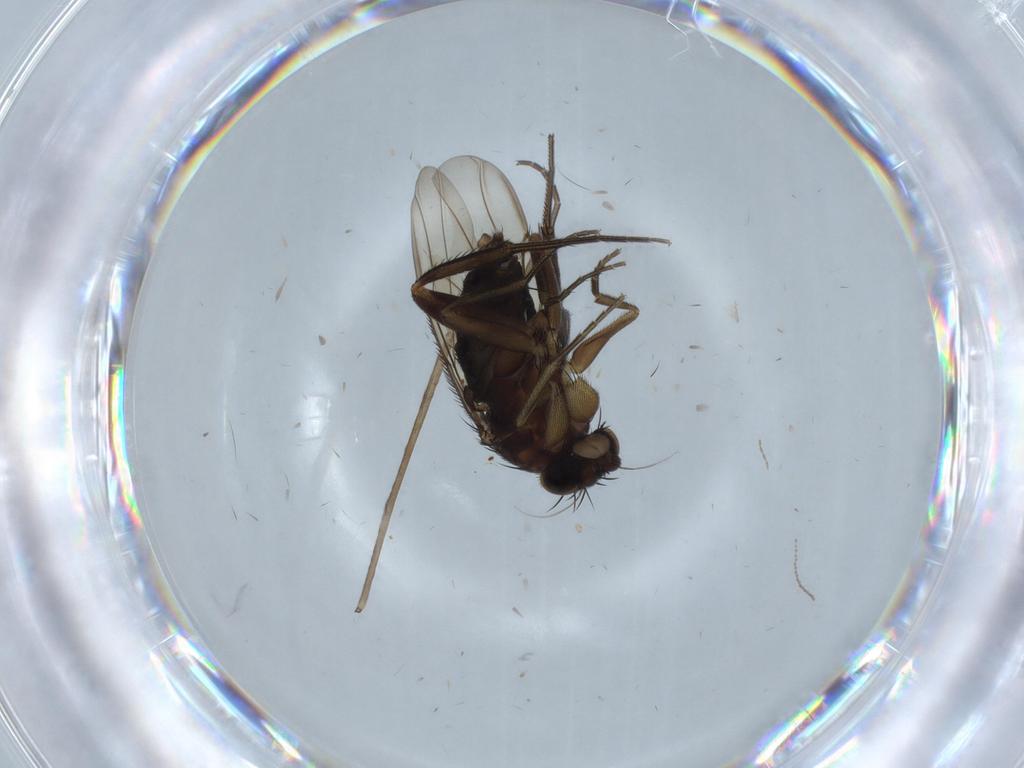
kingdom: Animalia
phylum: Arthropoda
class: Insecta
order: Diptera
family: Phoridae
